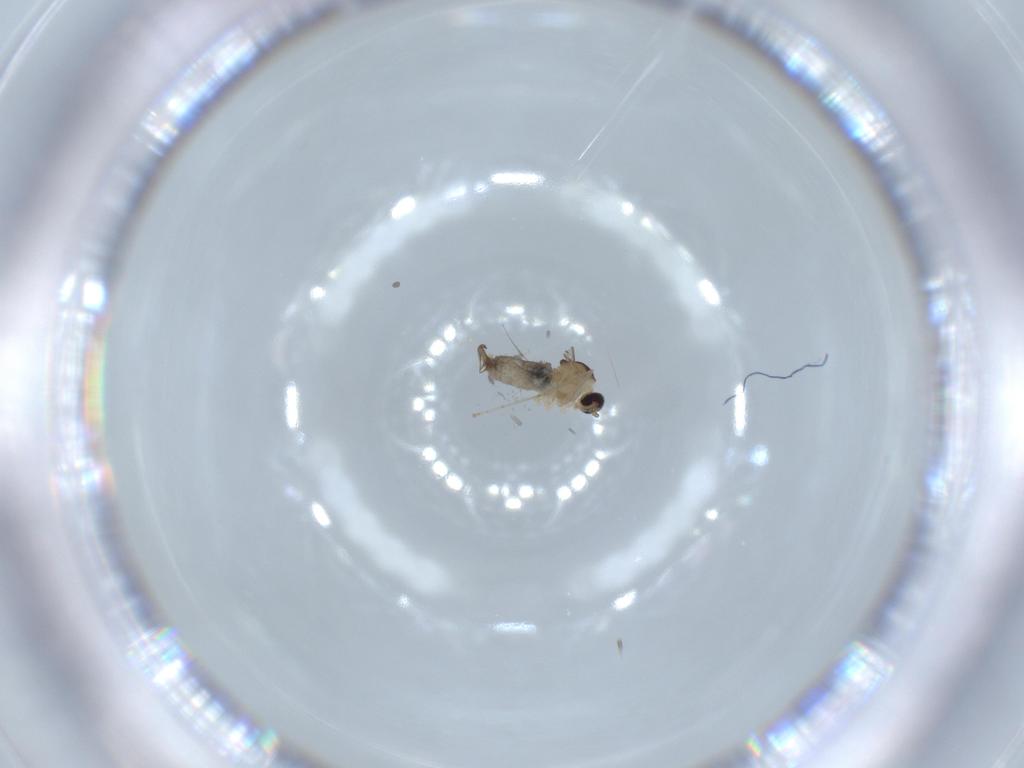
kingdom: Animalia
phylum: Arthropoda
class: Insecta
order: Diptera
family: Cecidomyiidae
